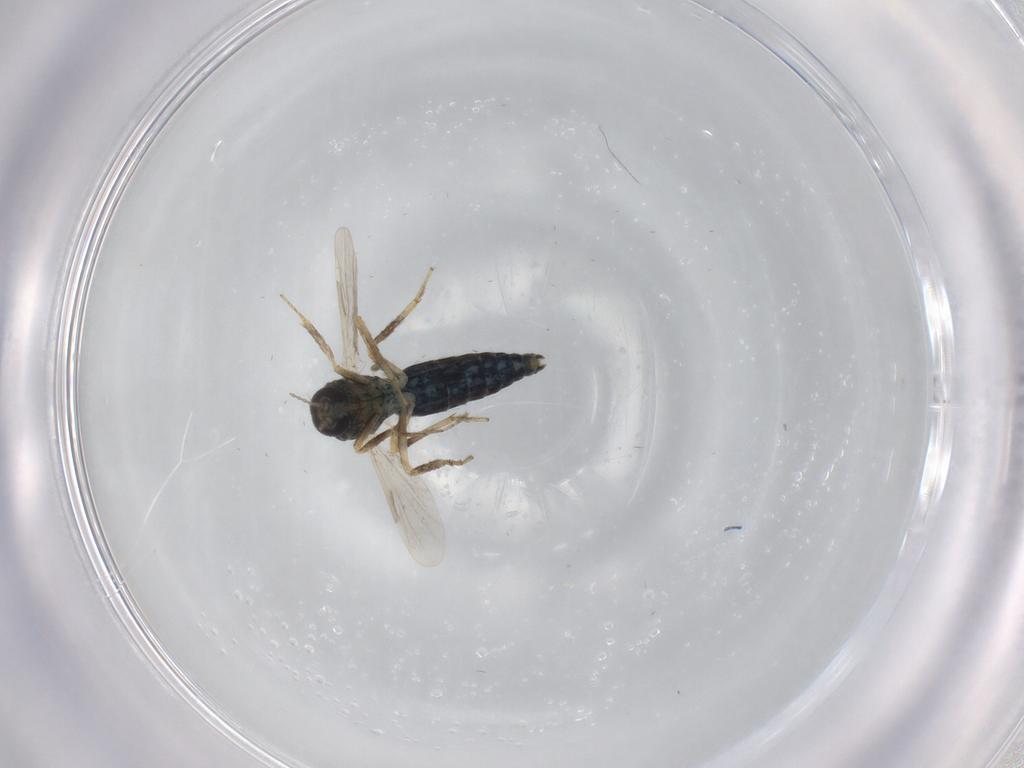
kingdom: Animalia
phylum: Arthropoda
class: Insecta
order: Diptera
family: Ceratopogonidae
